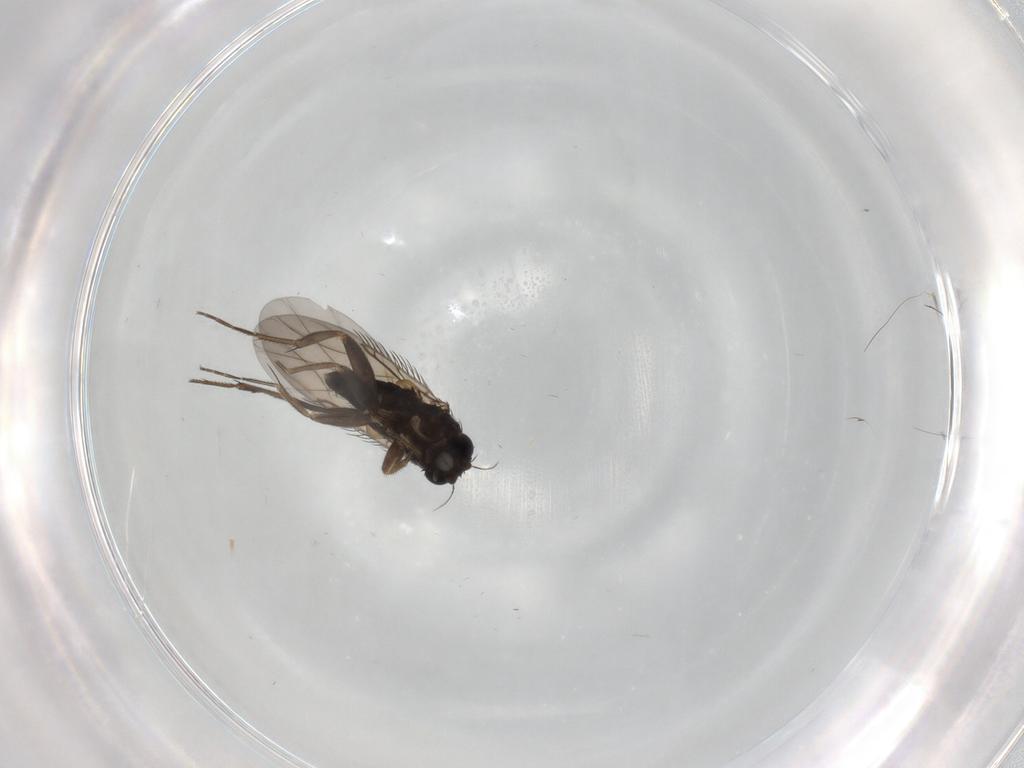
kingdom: Animalia
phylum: Arthropoda
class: Insecta
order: Diptera
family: Phoridae
